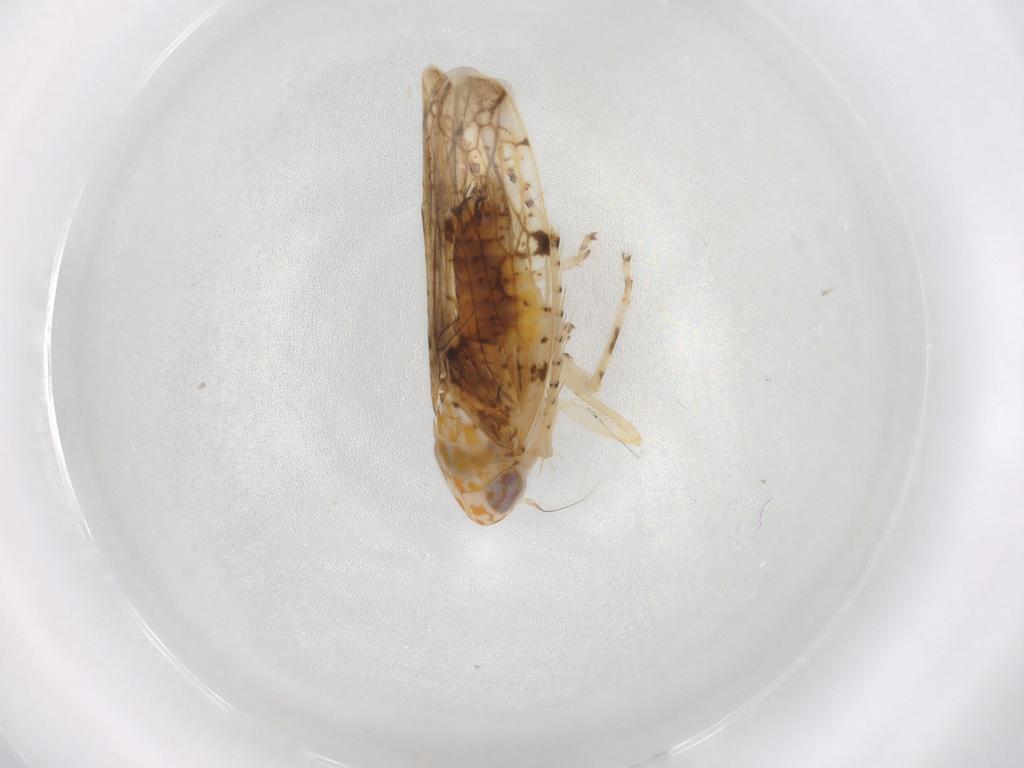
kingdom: Animalia
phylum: Arthropoda
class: Insecta
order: Hemiptera
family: Cicadellidae
